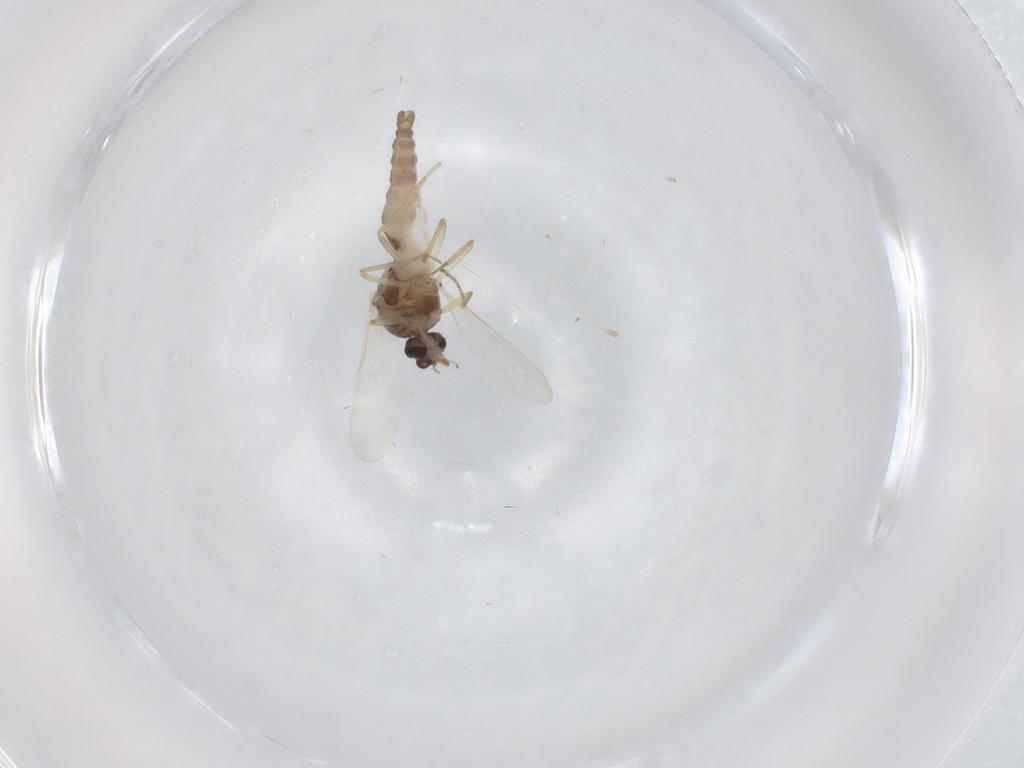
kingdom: Animalia
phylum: Arthropoda
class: Insecta
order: Diptera
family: Ceratopogonidae
